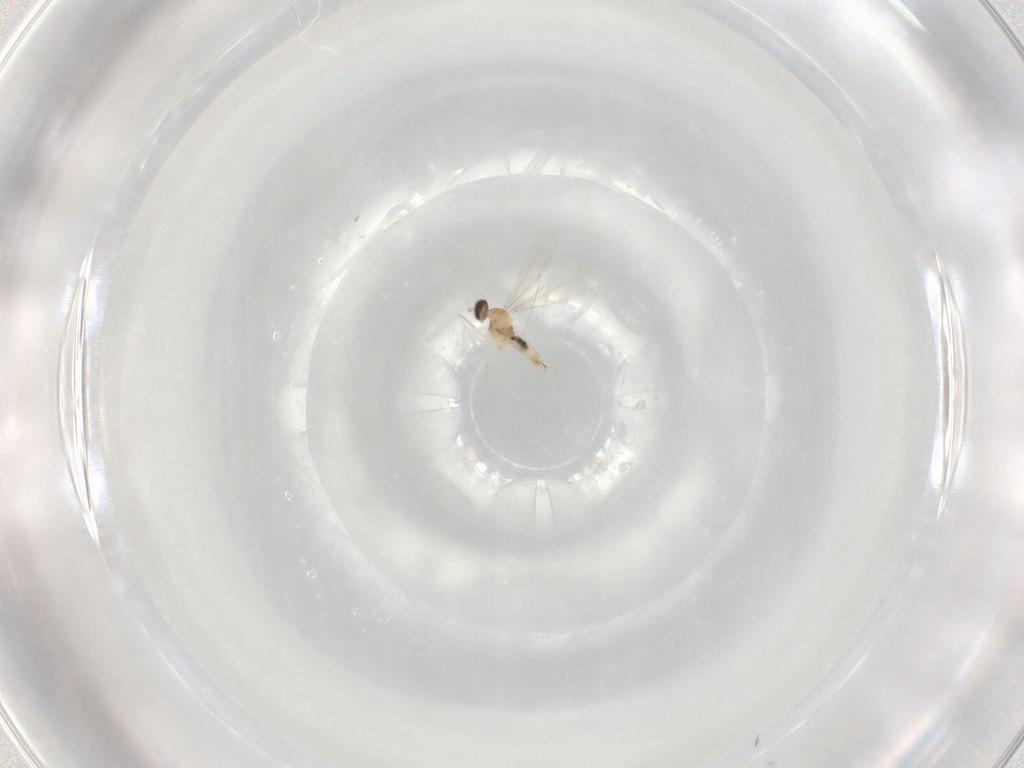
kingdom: Animalia
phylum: Arthropoda
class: Insecta
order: Diptera
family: Cecidomyiidae
